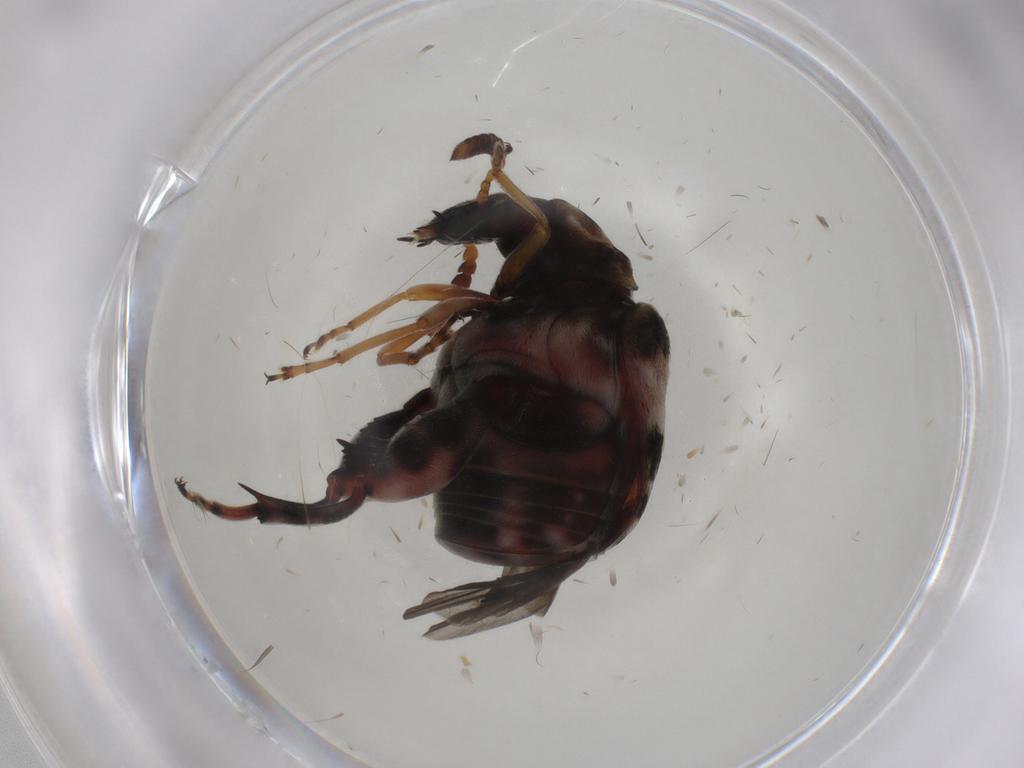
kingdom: Animalia
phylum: Arthropoda
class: Insecta
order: Coleoptera
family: Chrysomelidae
